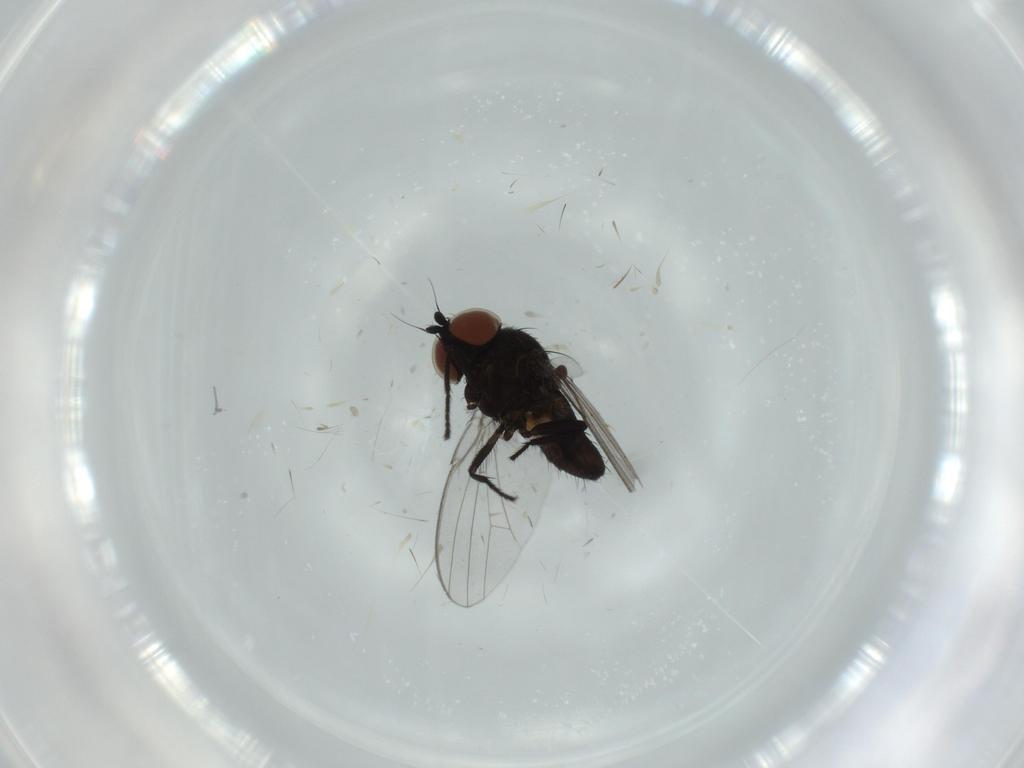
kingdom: Animalia
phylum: Arthropoda
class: Insecta
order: Diptera
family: Milichiidae
